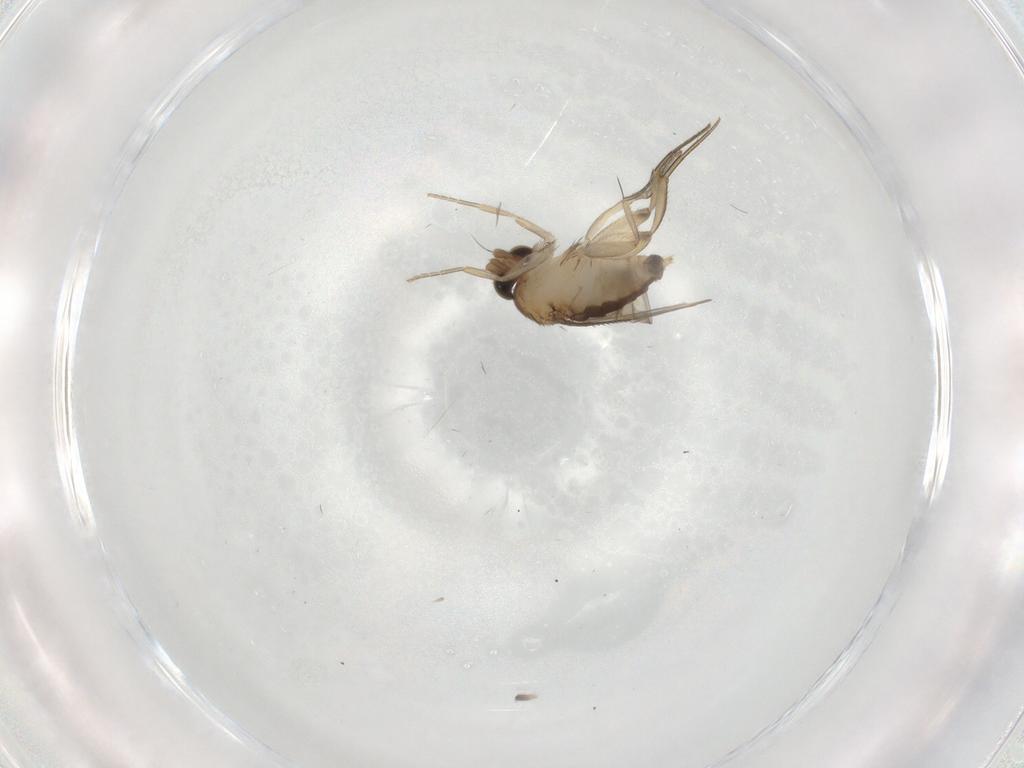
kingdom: Animalia
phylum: Arthropoda
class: Insecta
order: Diptera
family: Phoridae
